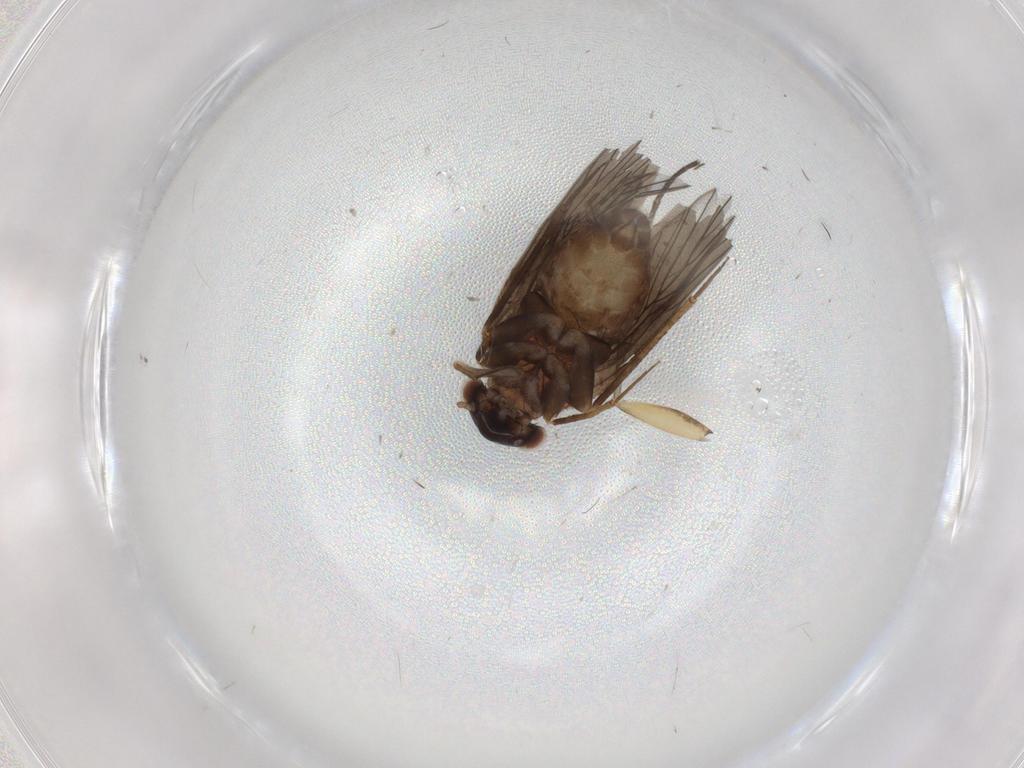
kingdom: Animalia
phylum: Arthropoda
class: Insecta
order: Psocodea
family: Lepidopsocidae
